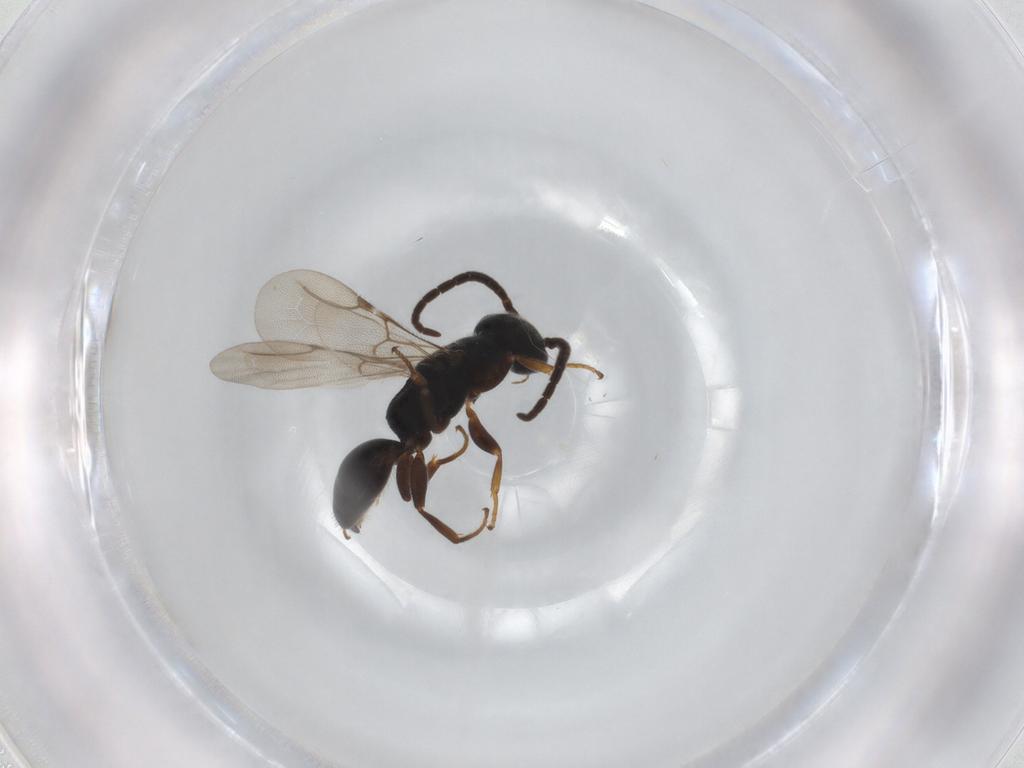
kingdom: Animalia
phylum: Arthropoda
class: Insecta
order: Hymenoptera
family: Bethylidae
